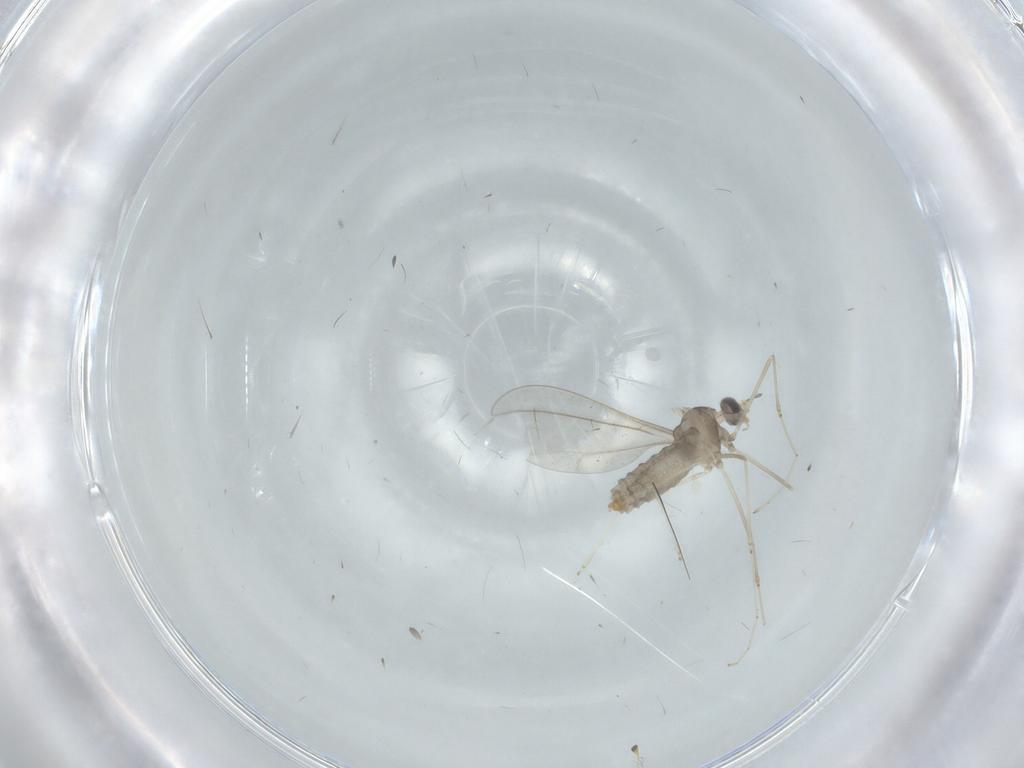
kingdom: Animalia
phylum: Arthropoda
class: Insecta
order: Diptera
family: Cecidomyiidae
